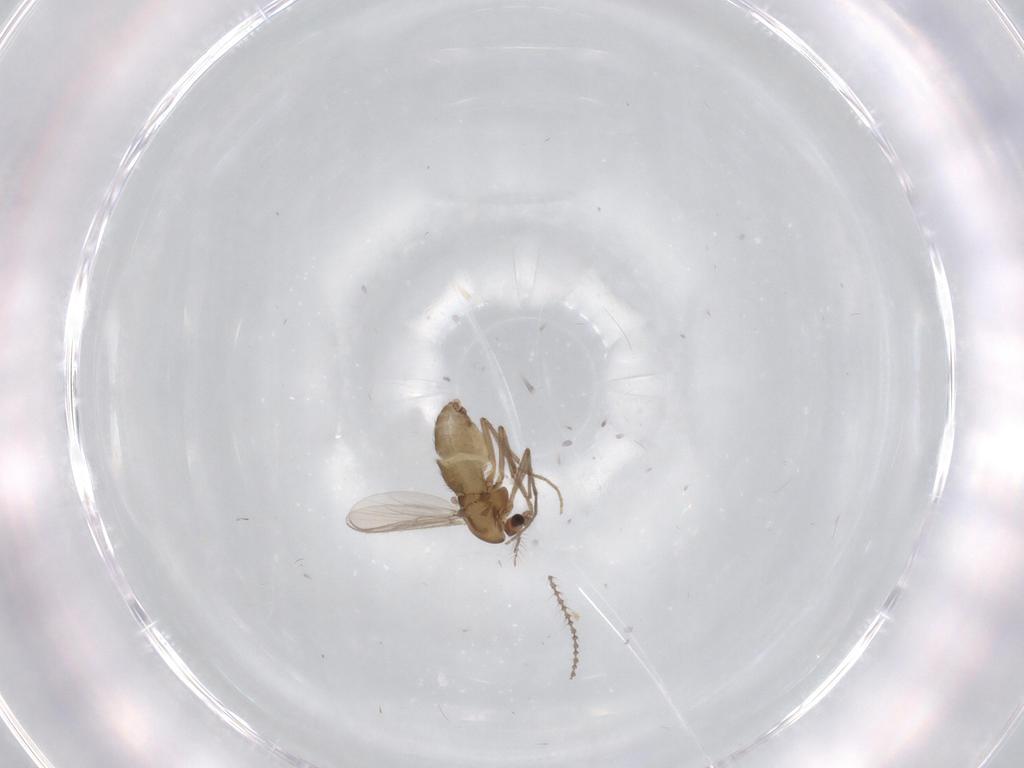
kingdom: Animalia
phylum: Arthropoda
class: Insecta
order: Diptera
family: Chironomidae
